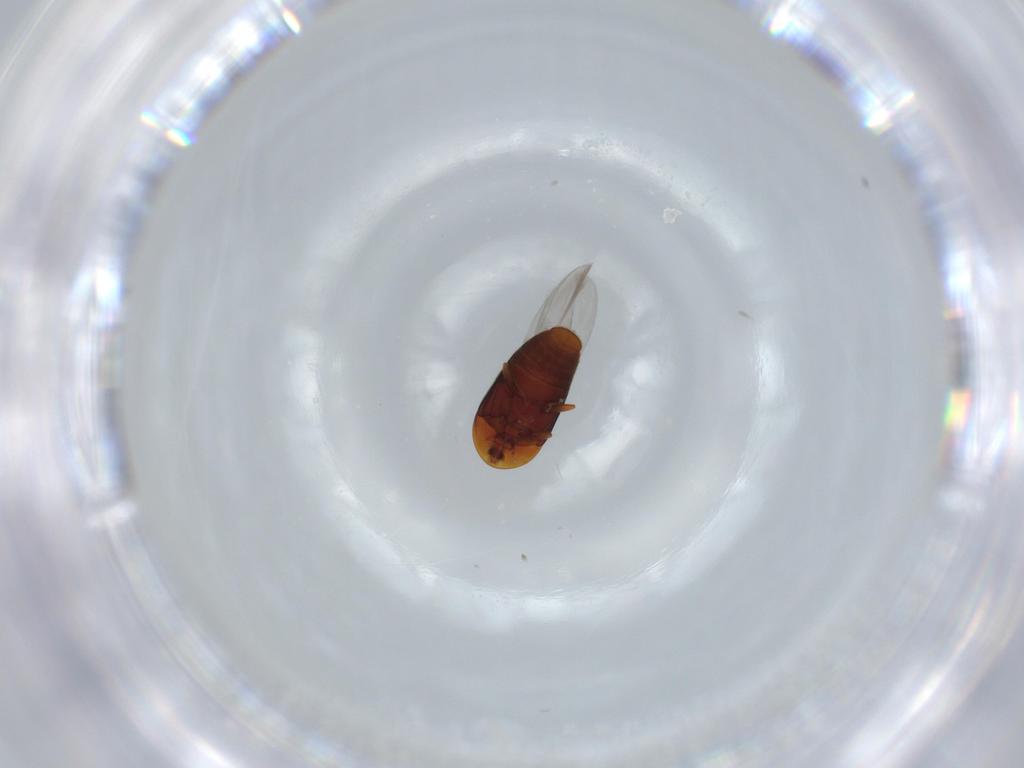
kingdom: Animalia
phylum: Arthropoda
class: Insecta
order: Coleoptera
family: Corylophidae
